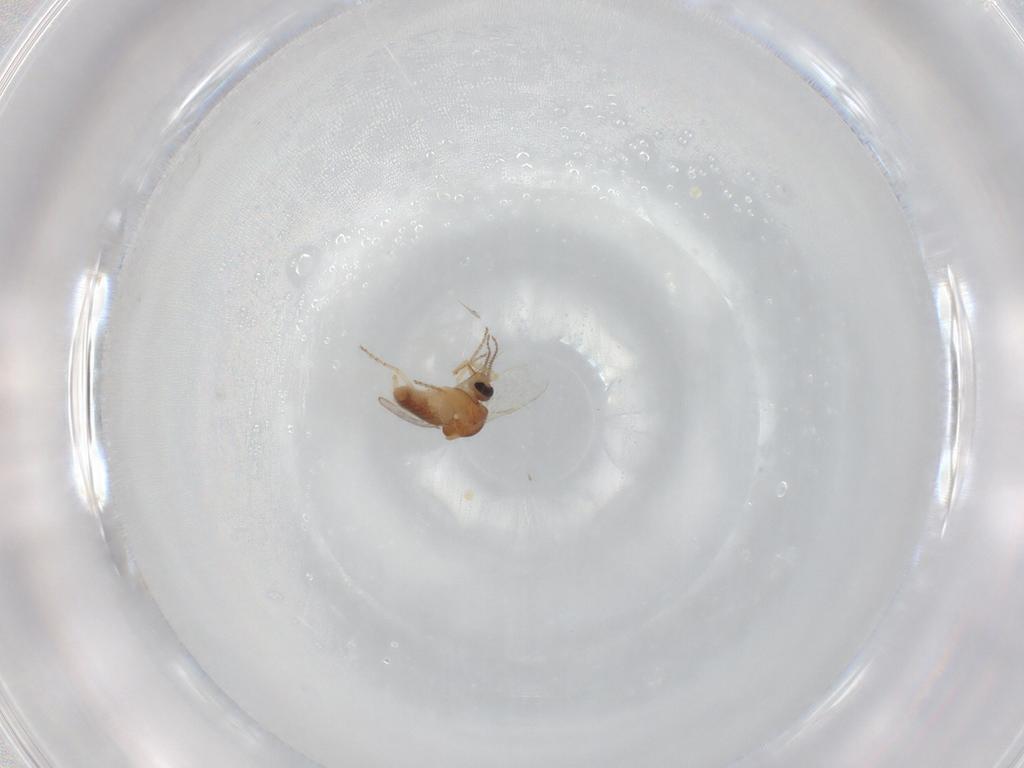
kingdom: Animalia
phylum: Arthropoda
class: Insecta
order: Diptera
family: Ceratopogonidae
